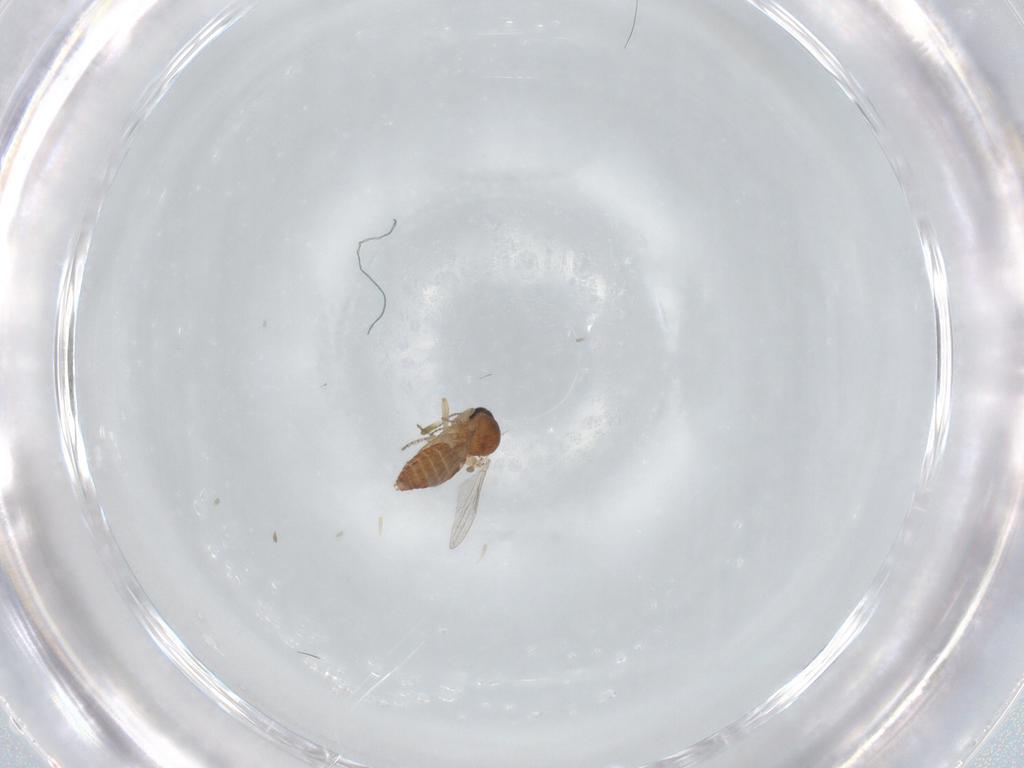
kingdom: Animalia
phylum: Arthropoda
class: Insecta
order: Diptera
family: Ceratopogonidae
